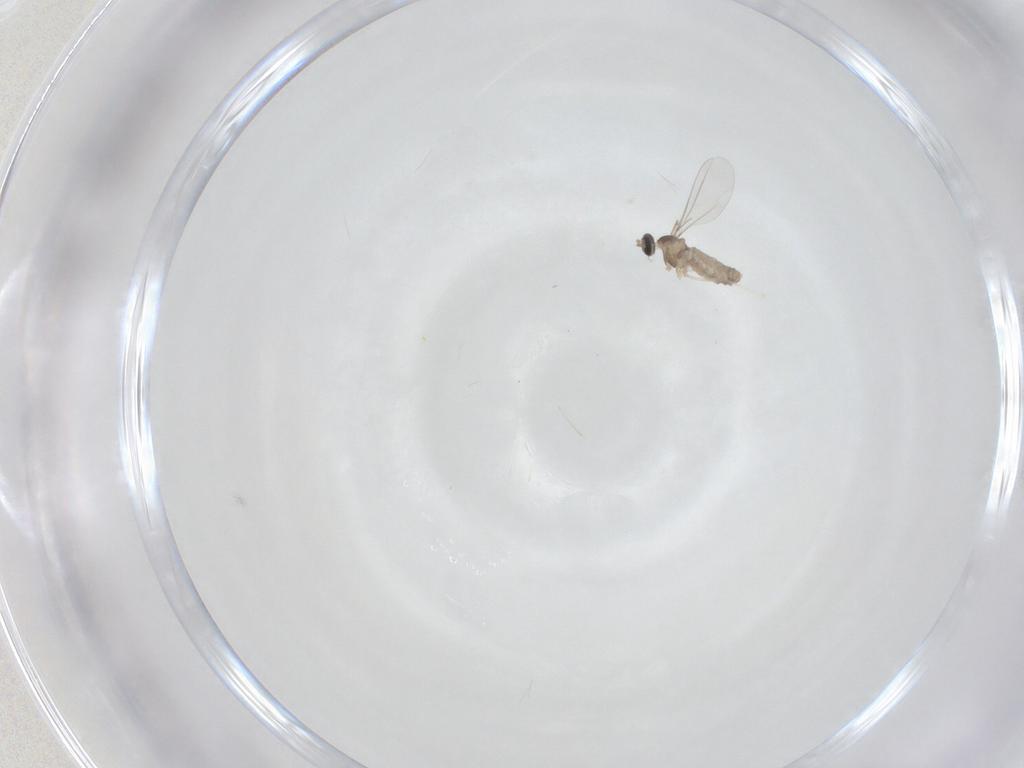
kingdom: Animalia
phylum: Arthropoda
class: Insecta
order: Diptera
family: Cecidomyiidae
